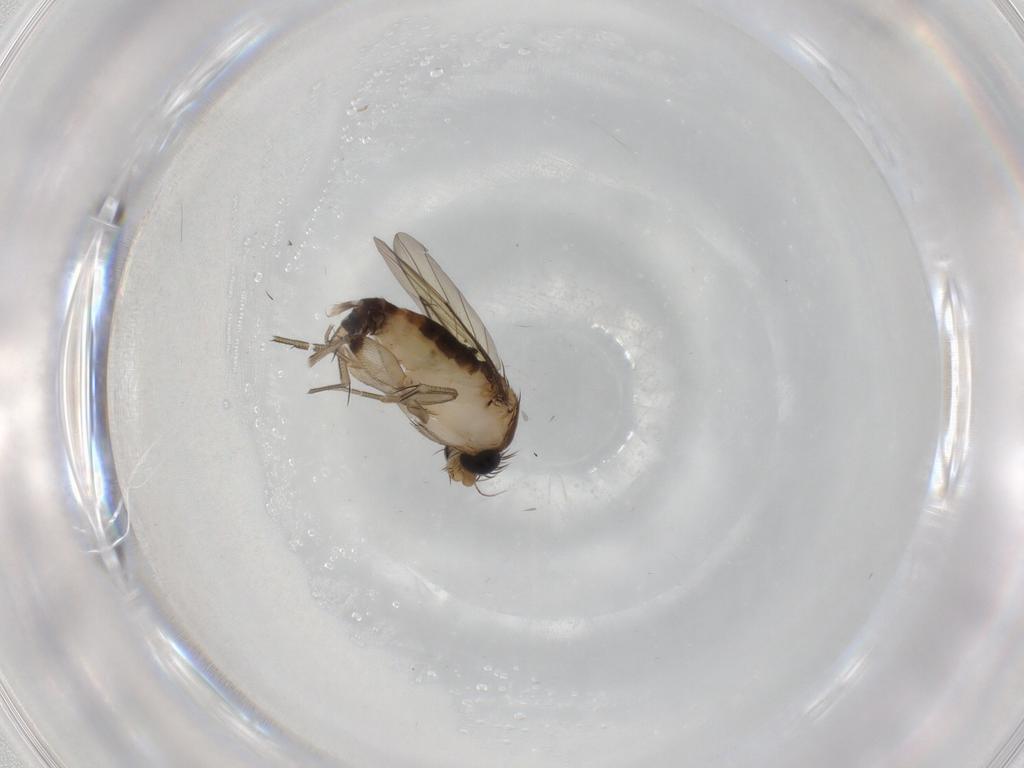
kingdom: Animalia
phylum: Arthropoda
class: Insecta
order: Diptera
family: Phoridae
